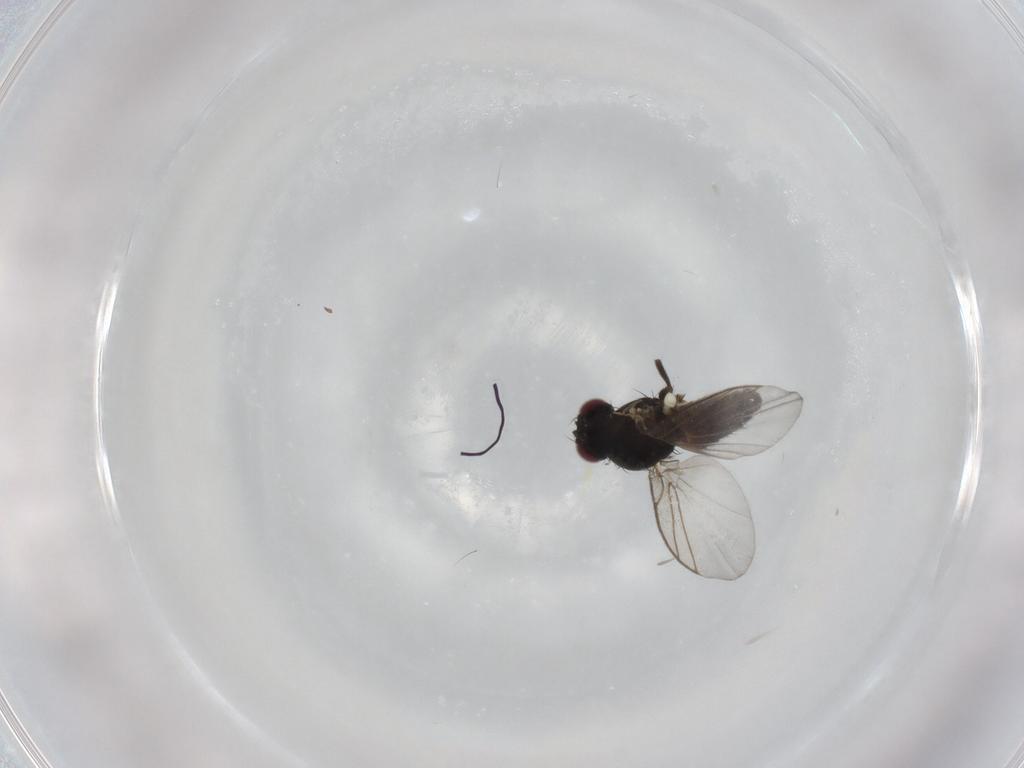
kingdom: Animalia
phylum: Arthropoda
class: Insecta
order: Diptera
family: Agromyzidae
